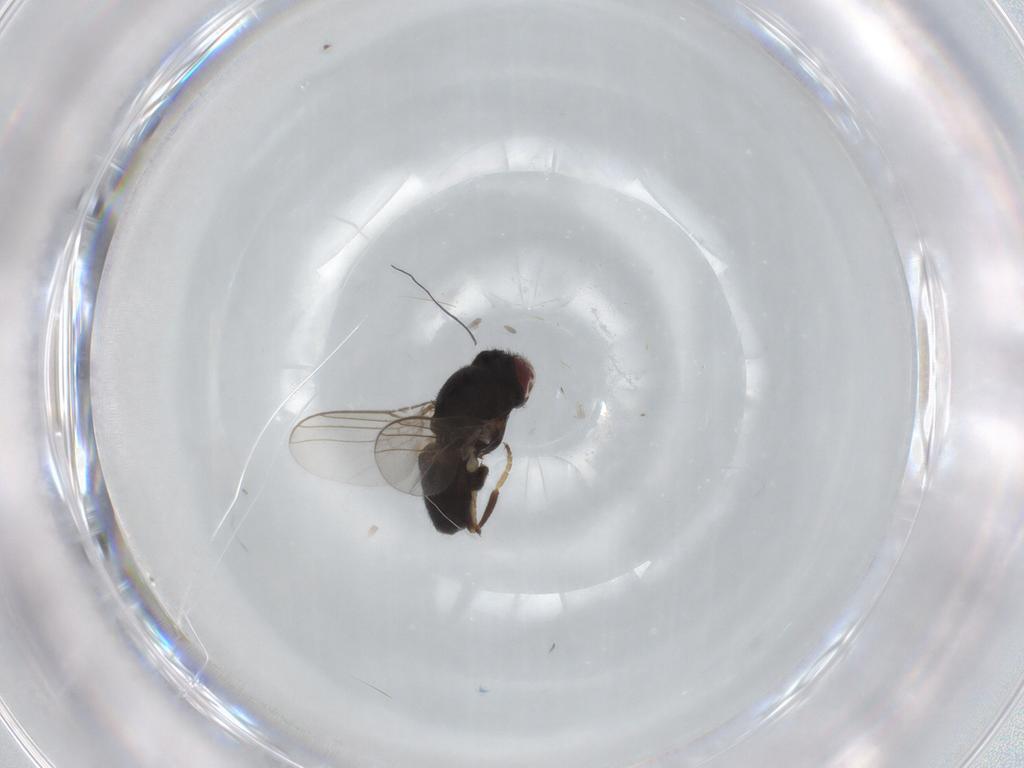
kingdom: Animalia
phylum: Arthropoda
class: Insecta
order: Diptera
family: Chloropidae
